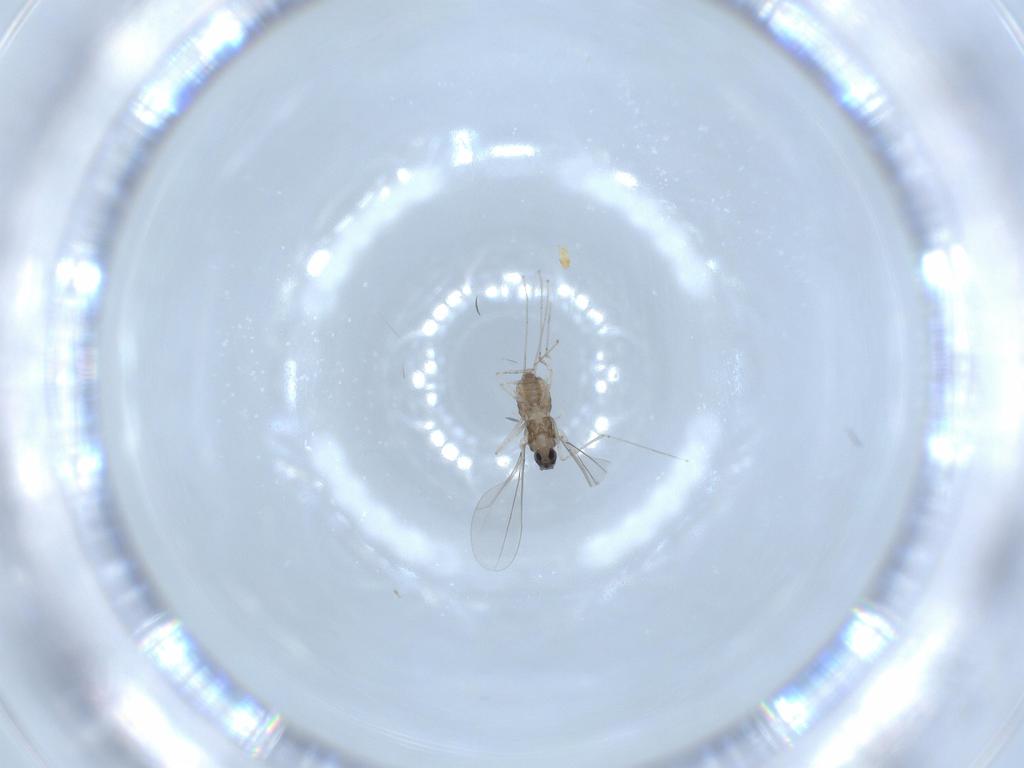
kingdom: Animalia
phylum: Arthropoda
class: Insecta
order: Diptera
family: Cecidomyiidae
